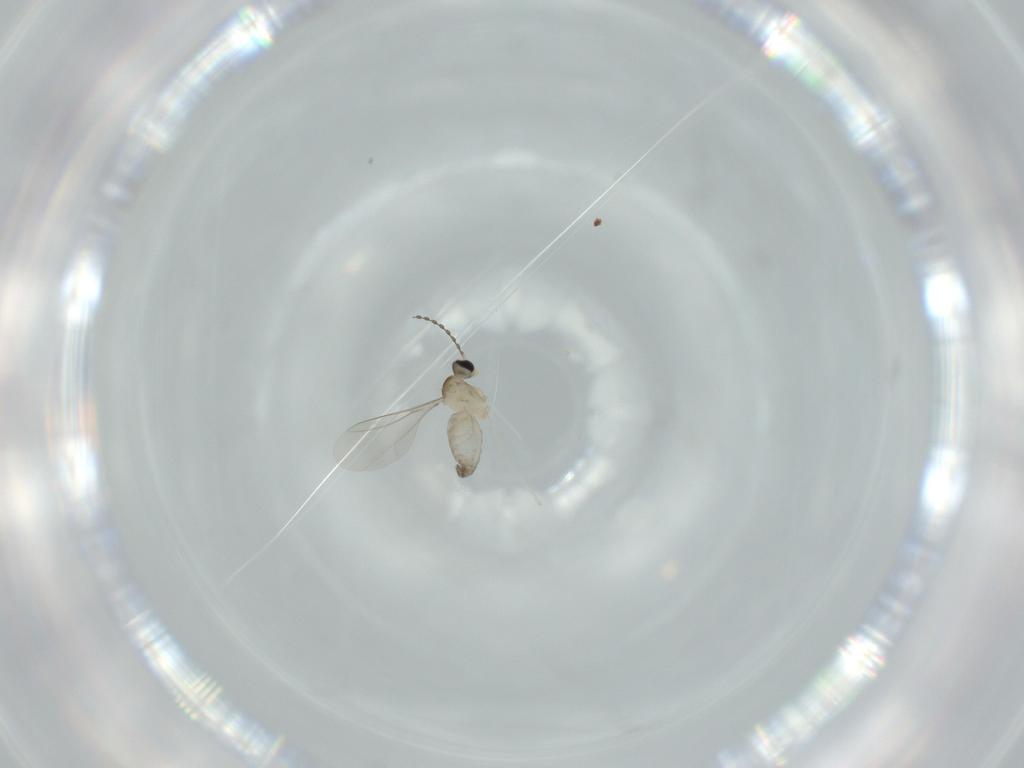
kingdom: Animalia
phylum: Arthropoda
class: Insecta
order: Diptera
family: Cecidomyiidae
